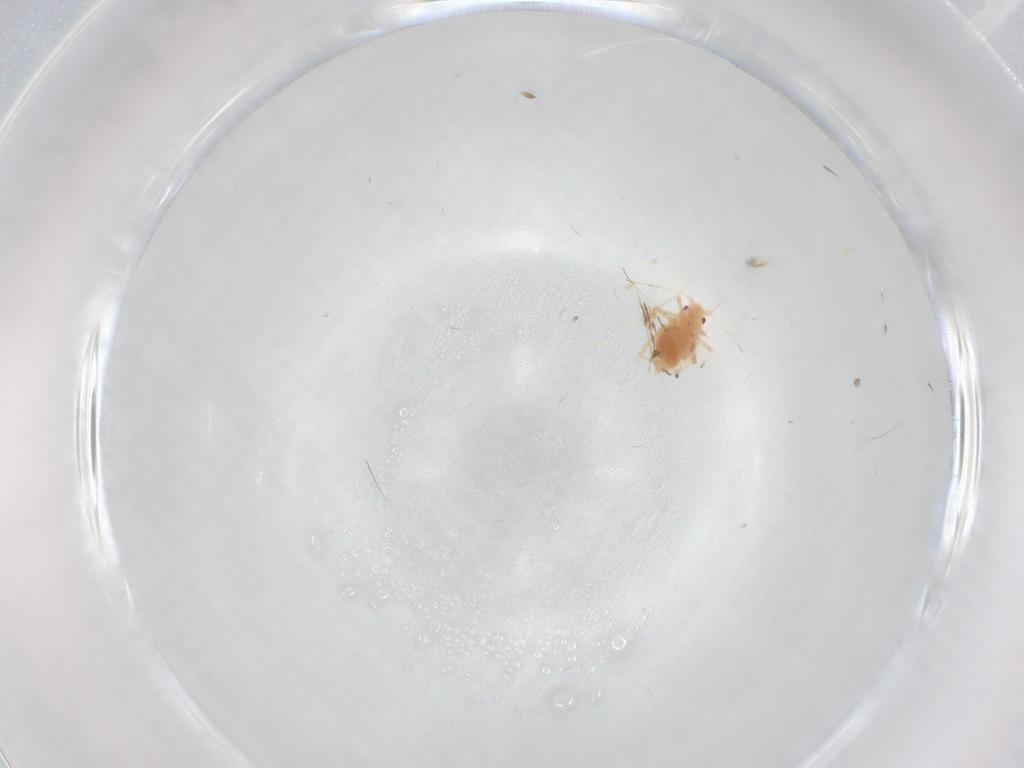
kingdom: Animalia
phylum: Arthropoda
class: Insecta
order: Hemiptera
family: Aphididae
